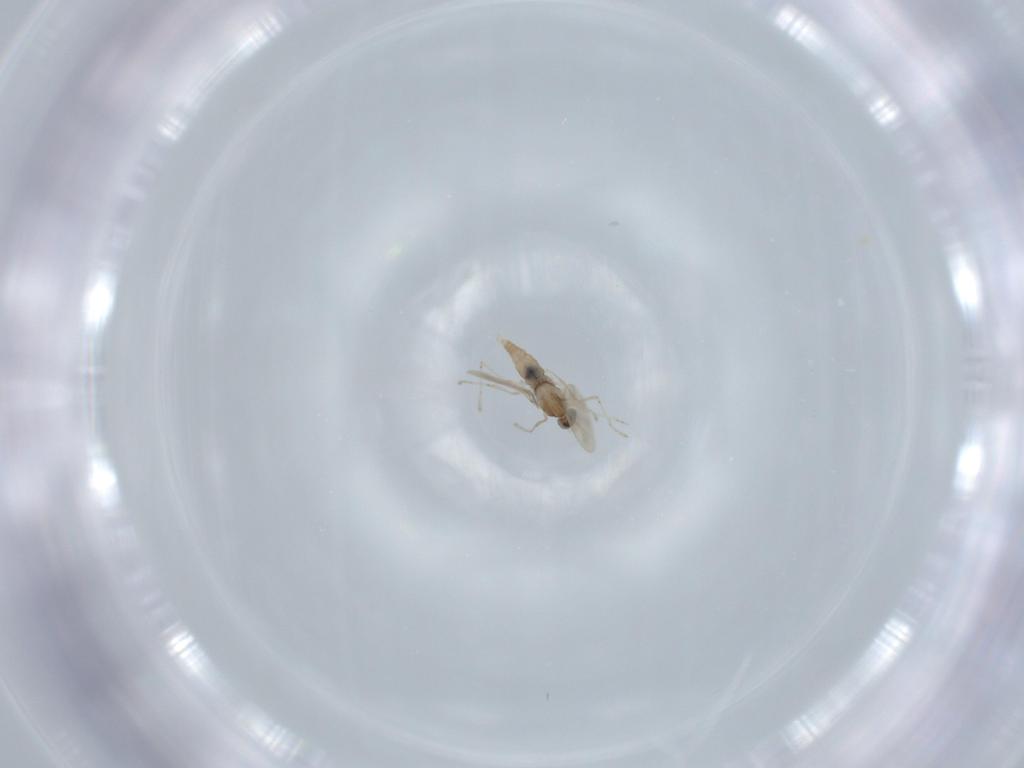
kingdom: Animalia
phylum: Arthropoda
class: Insecta
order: Diptera
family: Cecidomyiidae
